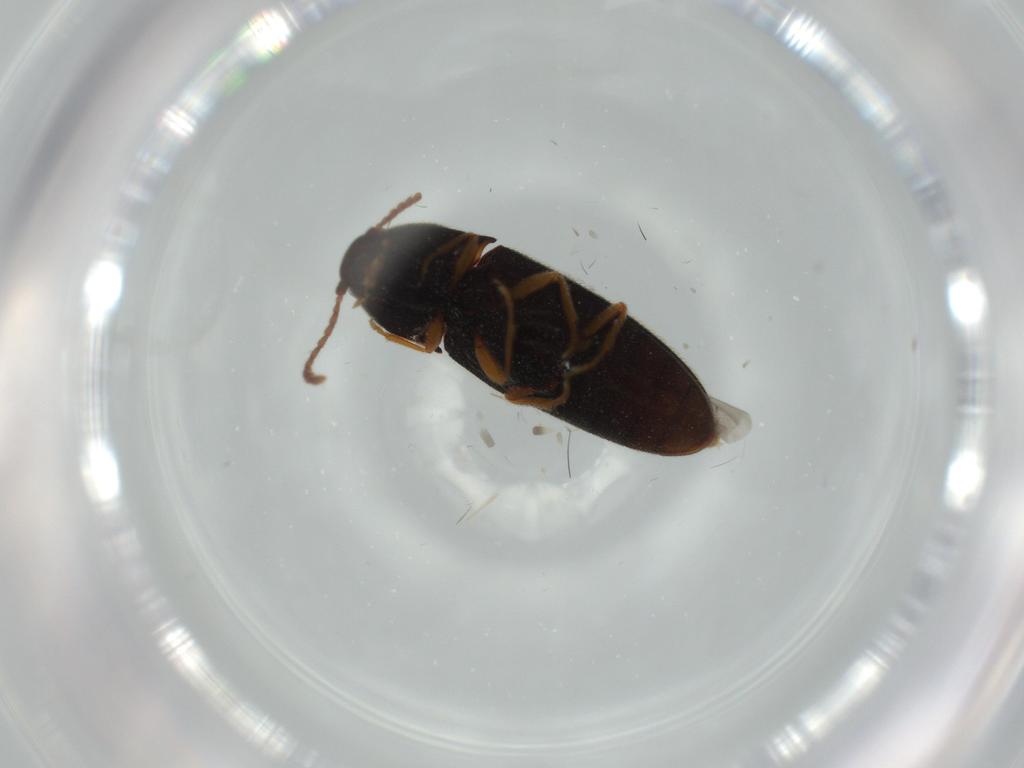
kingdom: Animalia
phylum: Arthropoda
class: Insecta
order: Coleoptera
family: Elateridae
